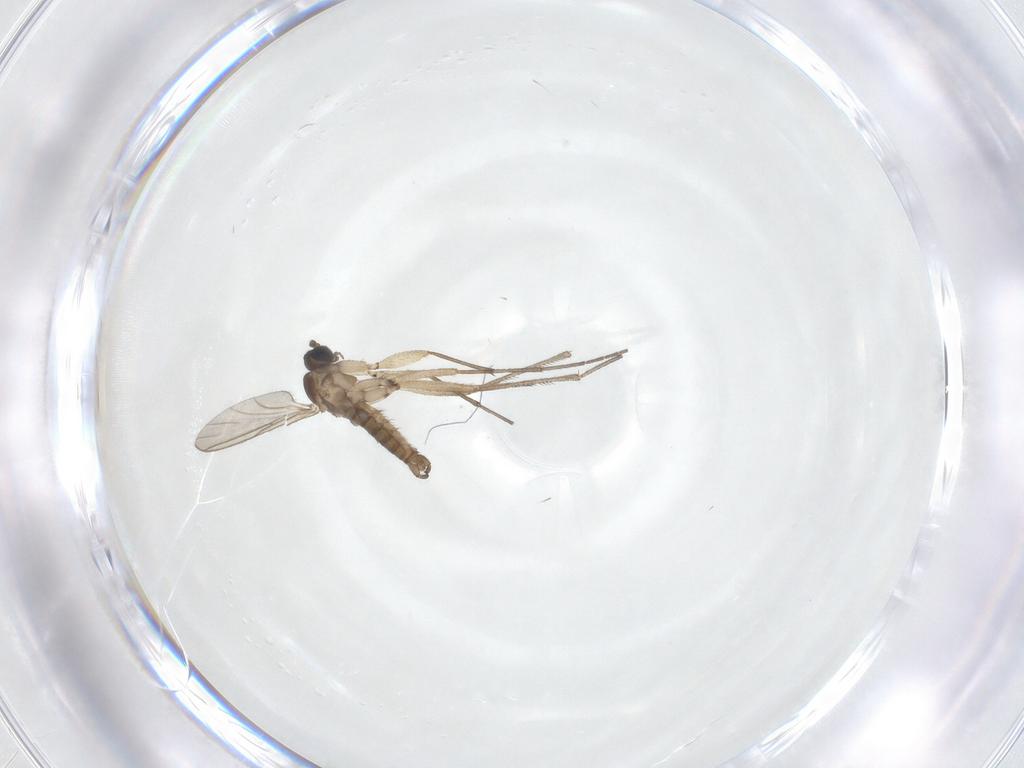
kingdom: Animalia
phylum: Arthropoda
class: Insecta
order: Diptera
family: Sciaridae
